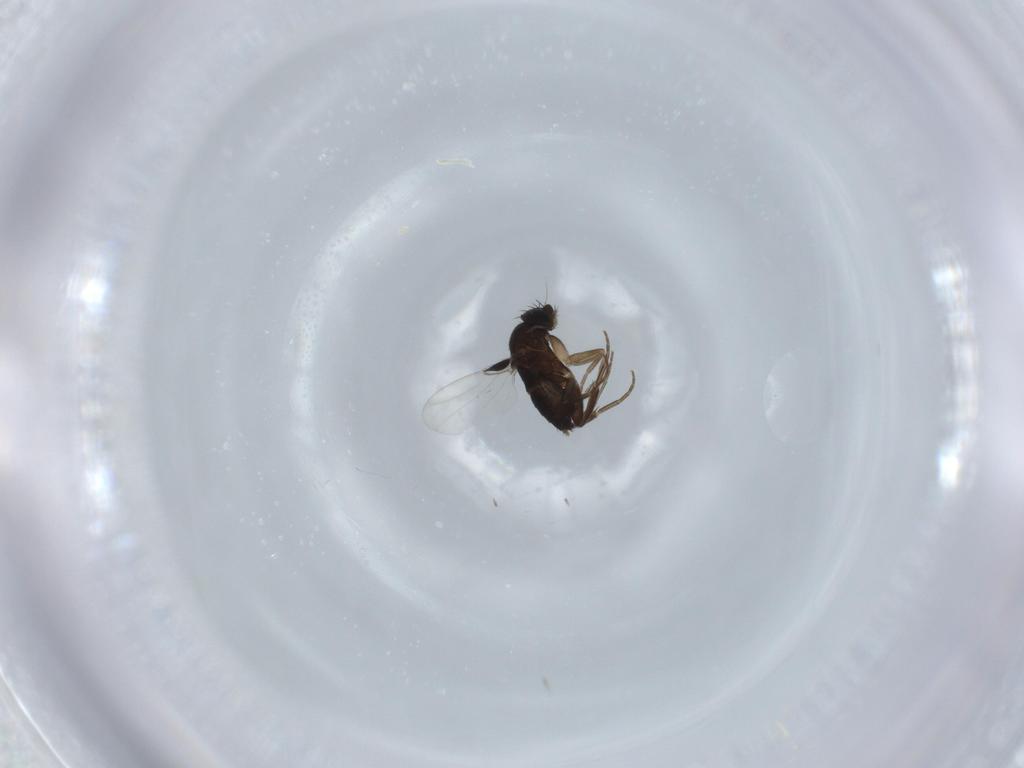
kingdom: Animalia
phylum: Arthropoda
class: Insecta
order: Diptera
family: Phoridae
